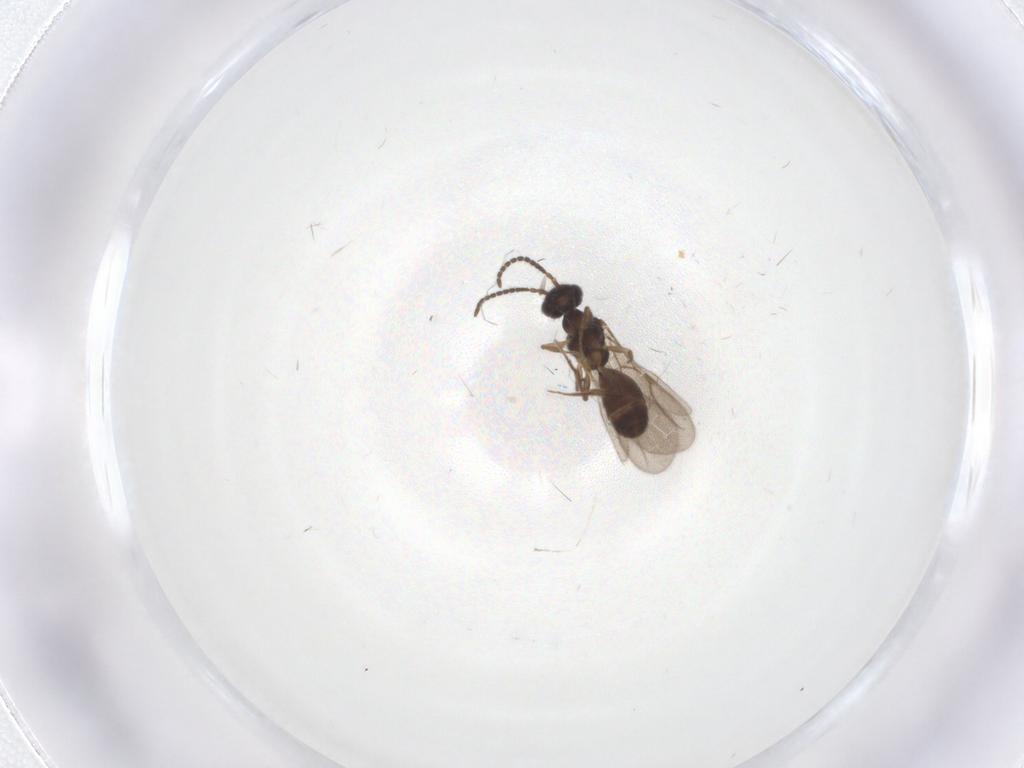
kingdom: Animalia
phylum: Arthropoda
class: Insecta
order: Hymenoptera
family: Bethylidae
